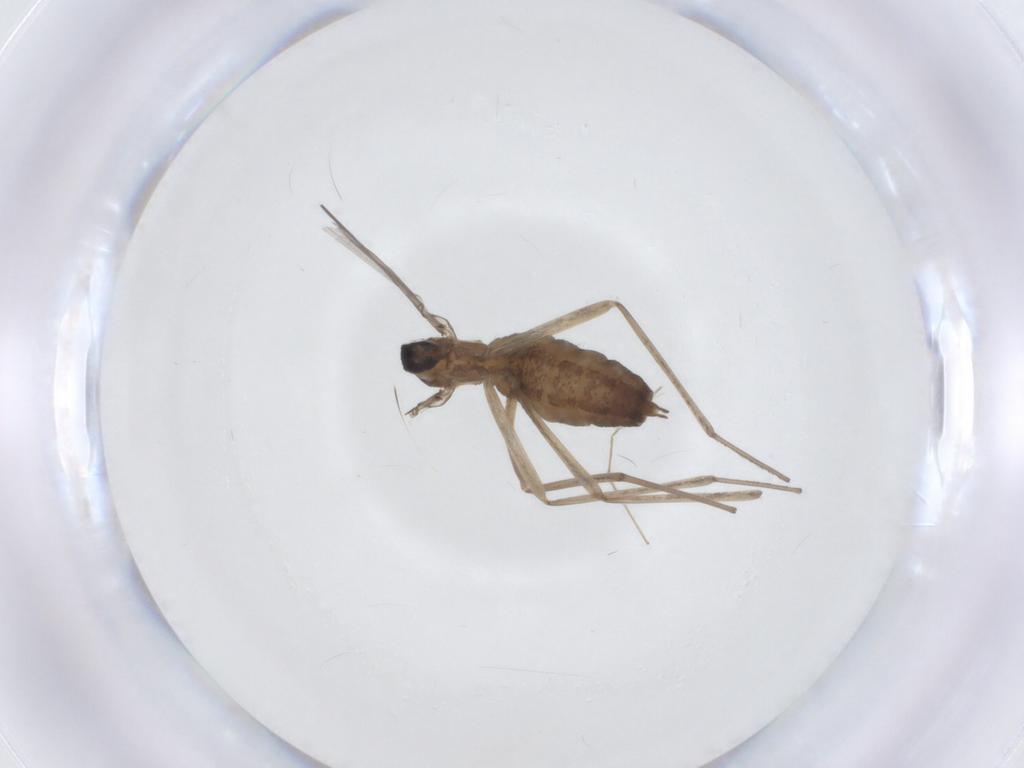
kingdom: Animalia
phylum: Arthropoda
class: Insecta
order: Diptera
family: Cecidomyiidae
